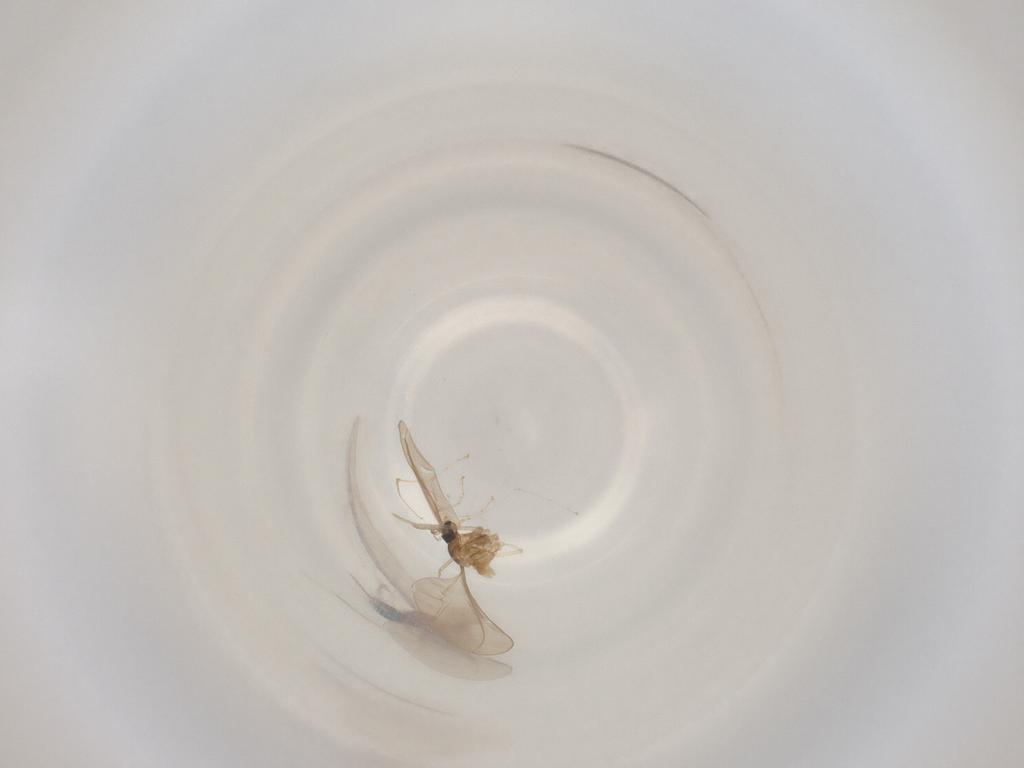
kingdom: Animalia
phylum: Arthropoda
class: Insecta
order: Diptera
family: Cecidomyiidae
